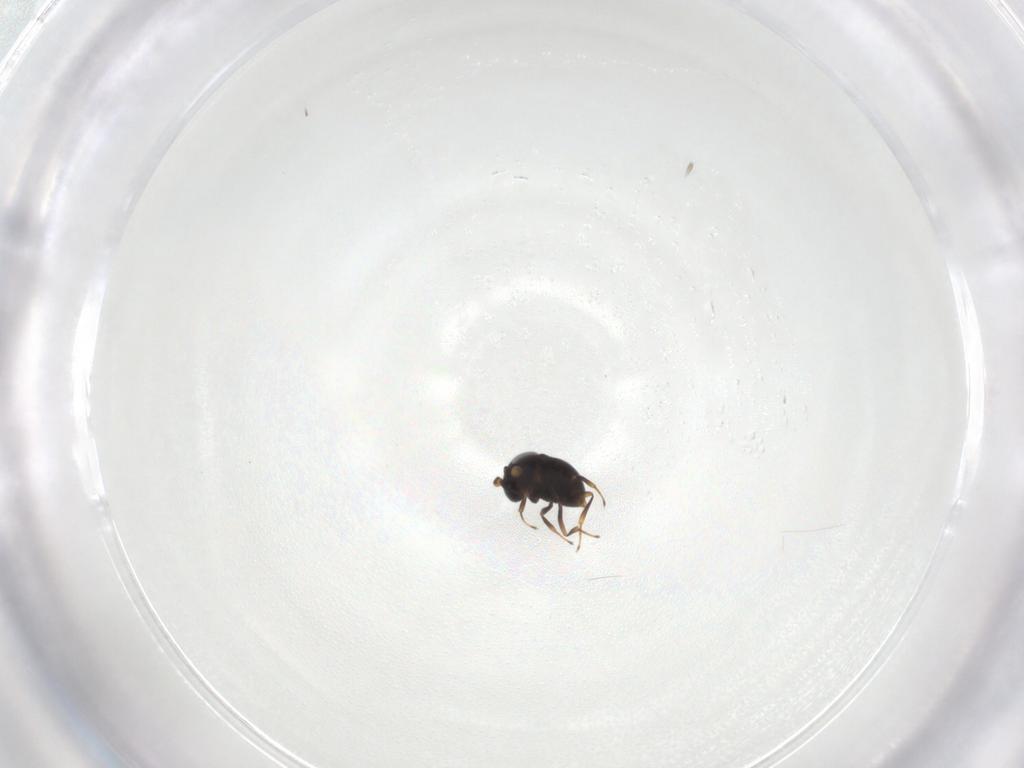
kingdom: Animalia
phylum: Arthropoda
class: Insecta
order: Hymenoptera
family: Scelionidae
